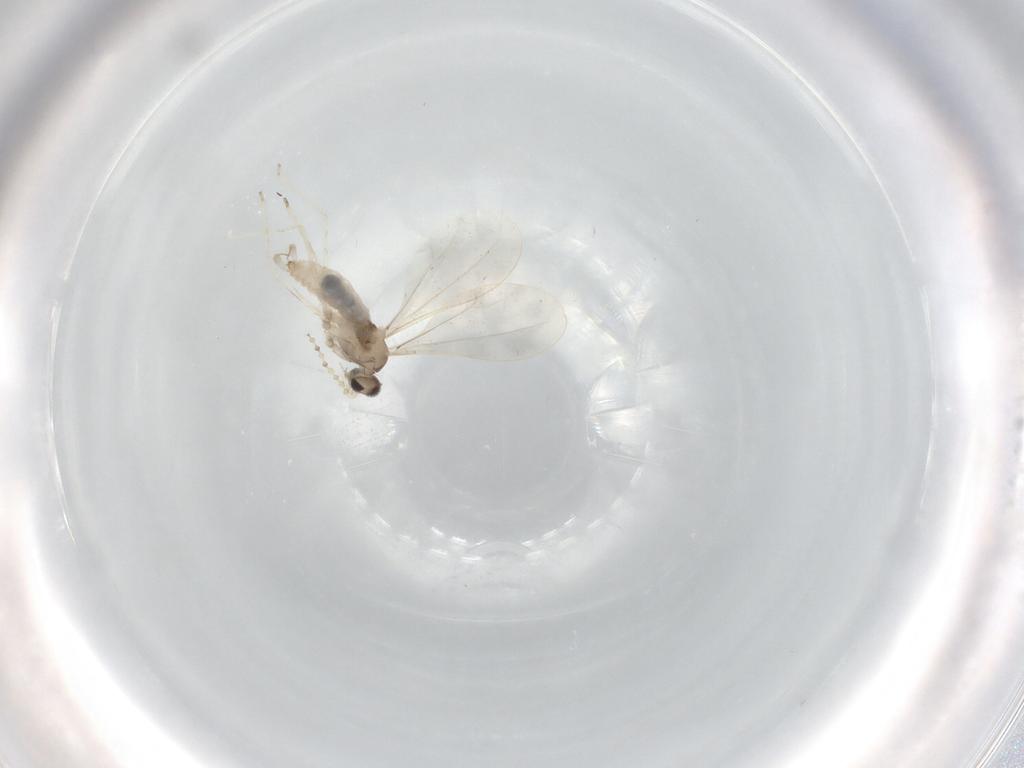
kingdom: Animalia
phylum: Arthropoda
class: Insecta
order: Diptera
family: Cecidomyiidae
